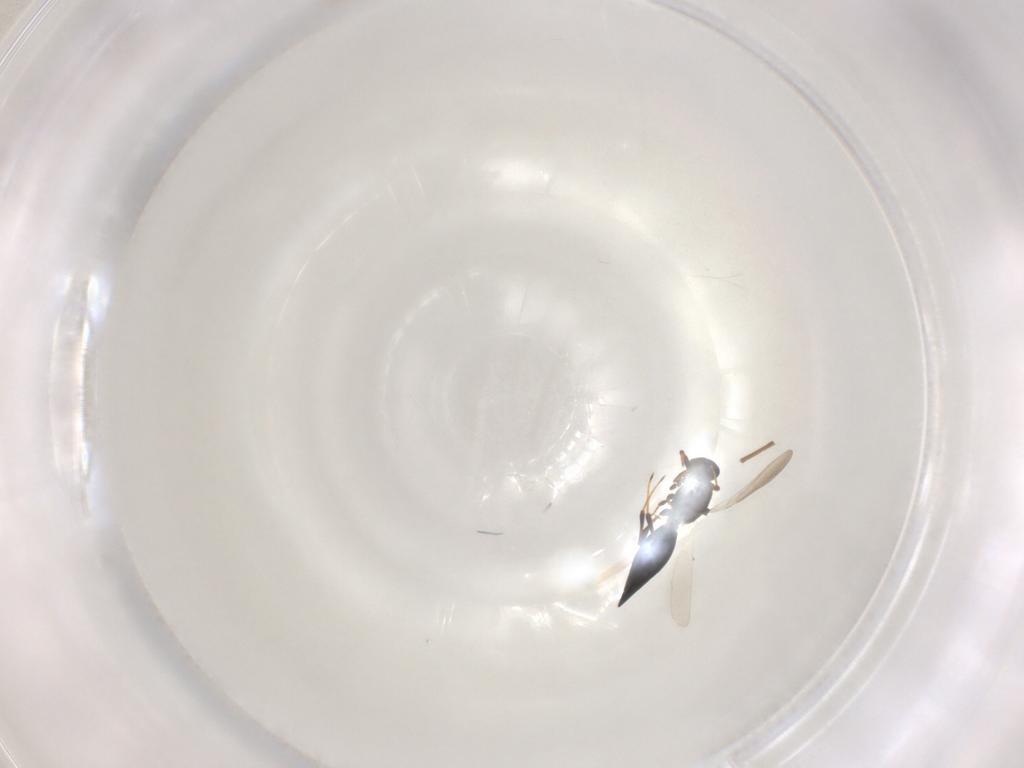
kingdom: Animalia
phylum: Arthropoda
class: Insecta
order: Hymenoptera
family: Platygastridae
